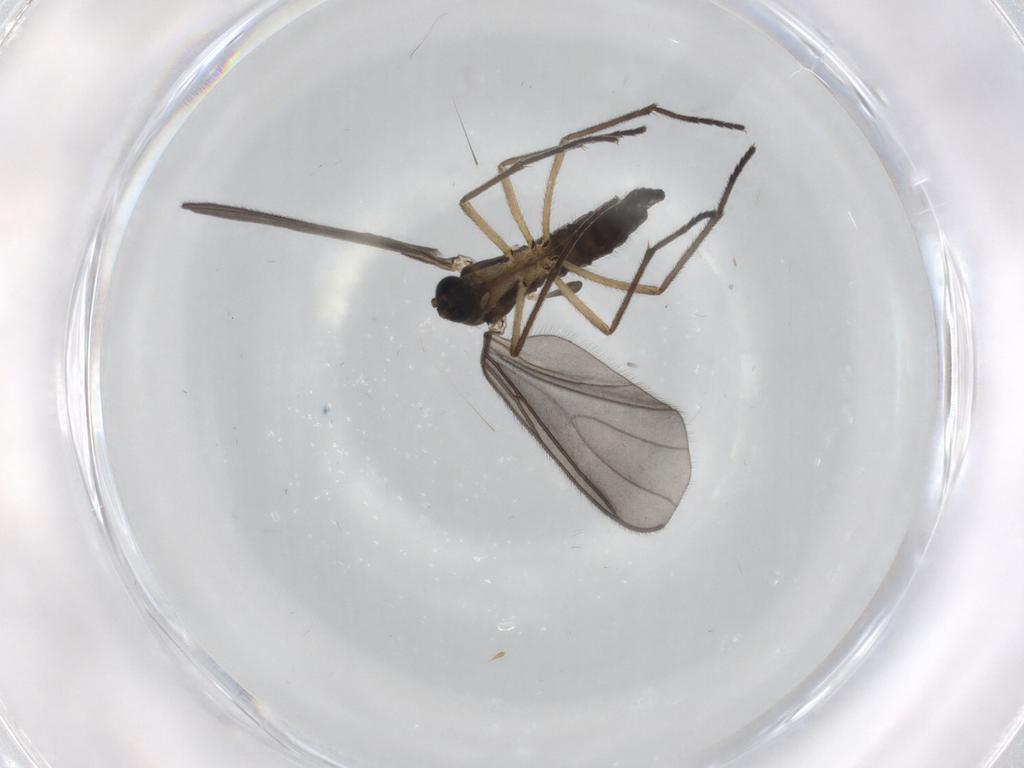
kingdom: Animalia
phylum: Arthropoda
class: Insecta
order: Diptera
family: Sciaridae
